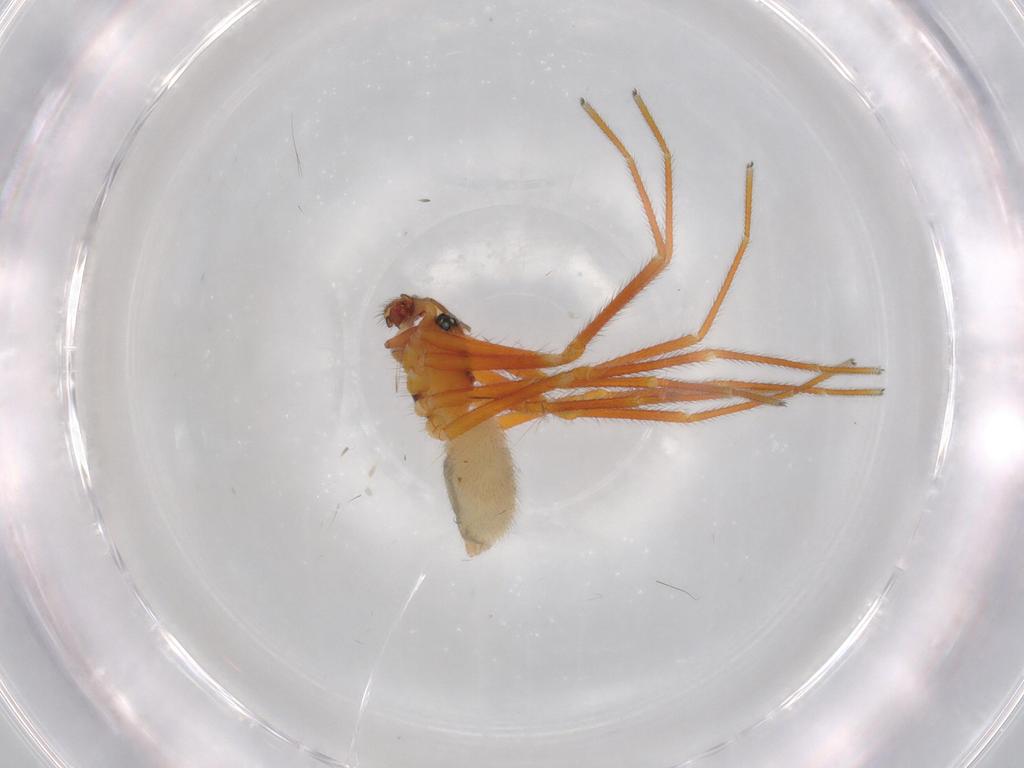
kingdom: Animalia
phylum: Arthropoda
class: Arachnida
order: Araneae
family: Linyphiidae
